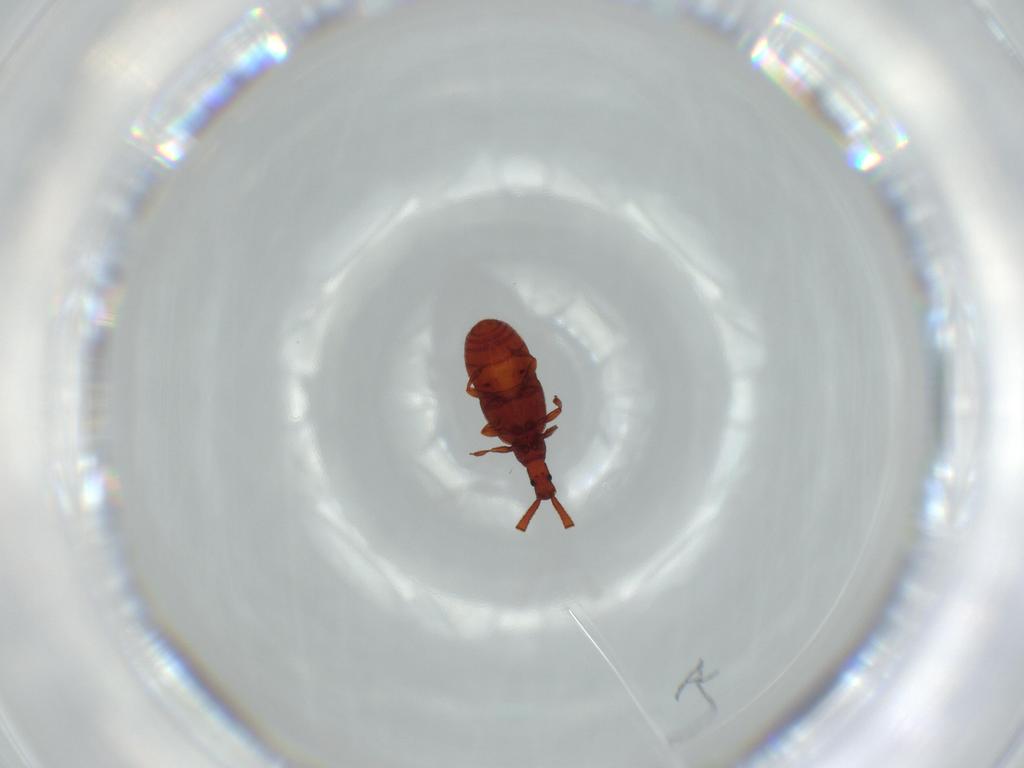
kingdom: Animalia
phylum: Arthropoda
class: Insecta
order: Coleoptera
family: Staphylinidae
